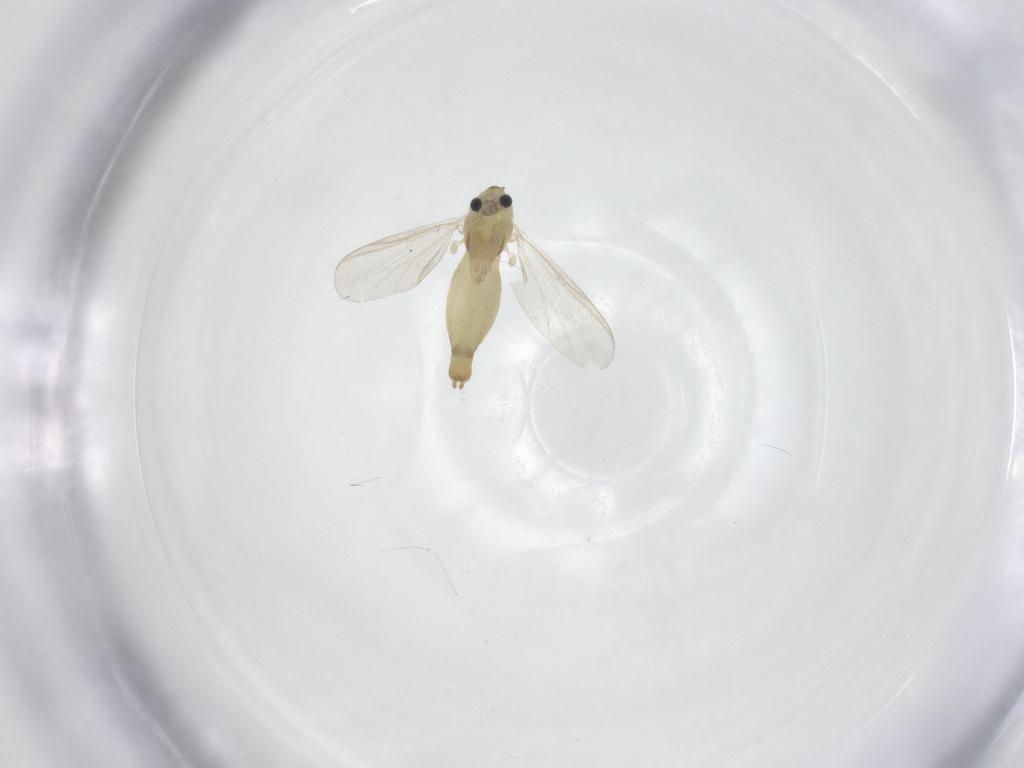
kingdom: Animalia
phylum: Arthropoda
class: Insecta
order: Diptera
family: Chironomidae
